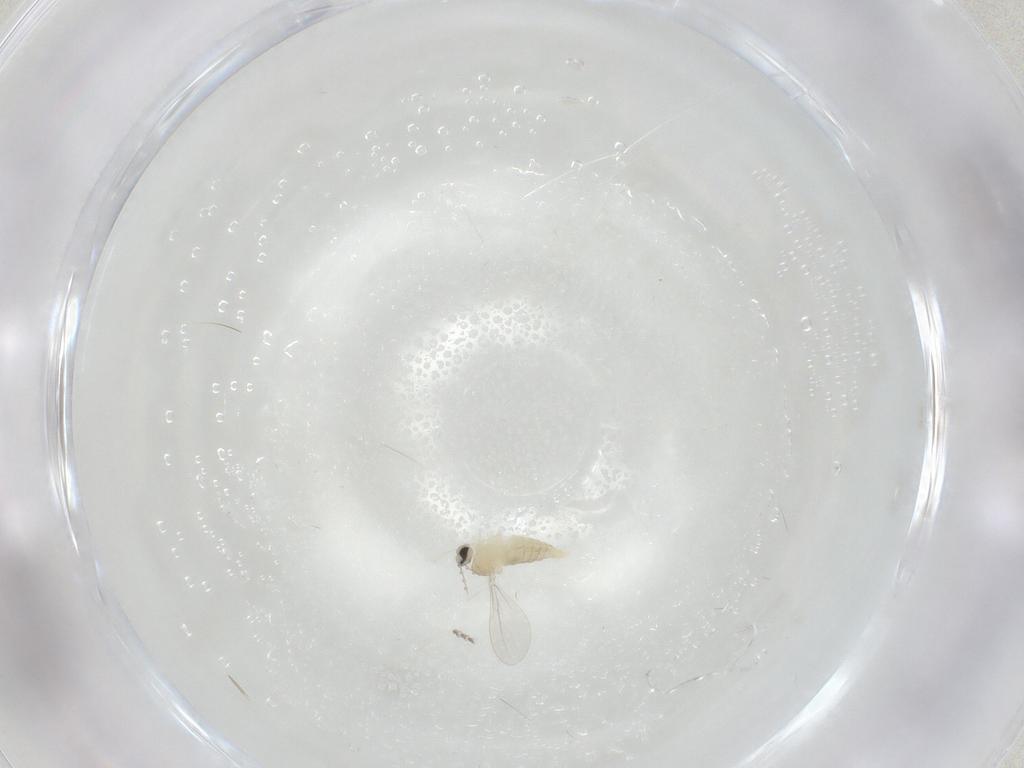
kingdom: Animalia
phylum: Arthropoda
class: Insecta
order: Diptera
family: Cecidomyiidae
